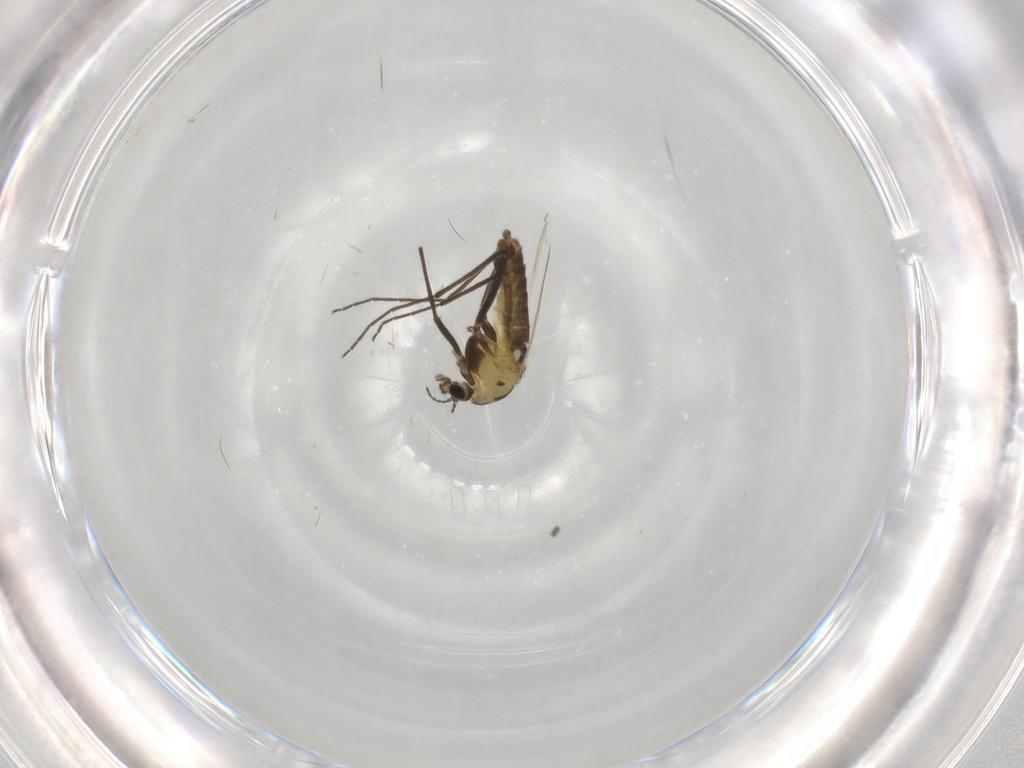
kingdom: Animalia
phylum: Arthropoda
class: Insecta
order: Diptera
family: Chironomidae
